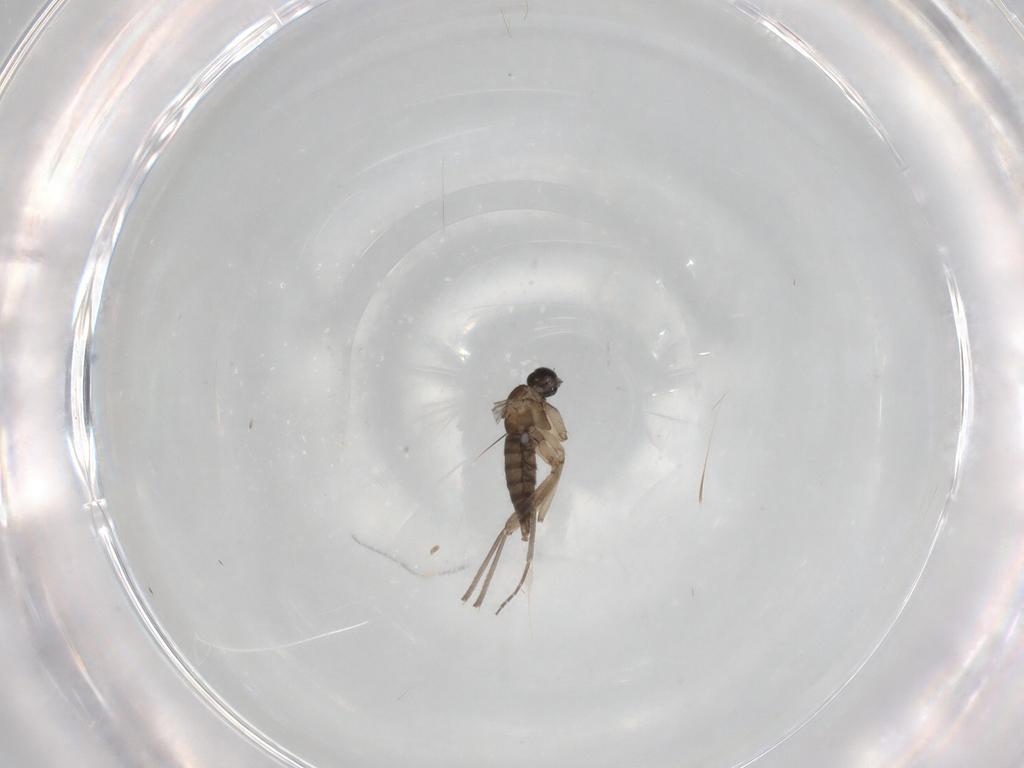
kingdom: Animalia
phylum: Arthropoda
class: Insecta
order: Diptera
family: Sciaridae
